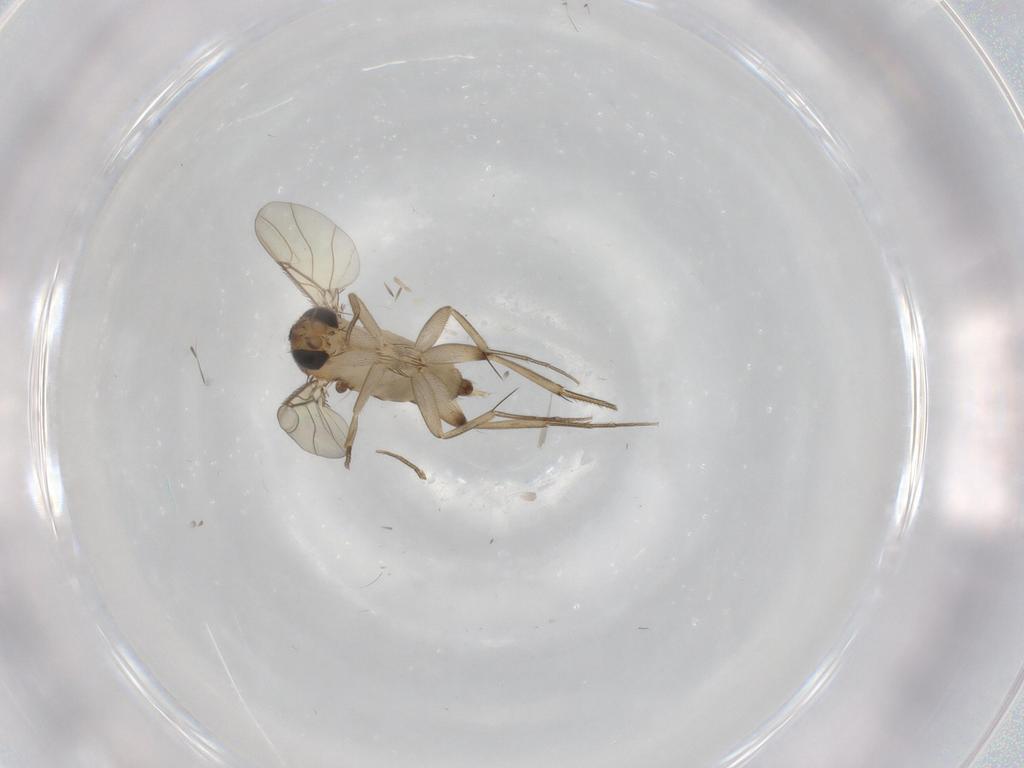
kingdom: Animalia
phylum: Arthropoda
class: Insecta
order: Diptera
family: Phoridae
